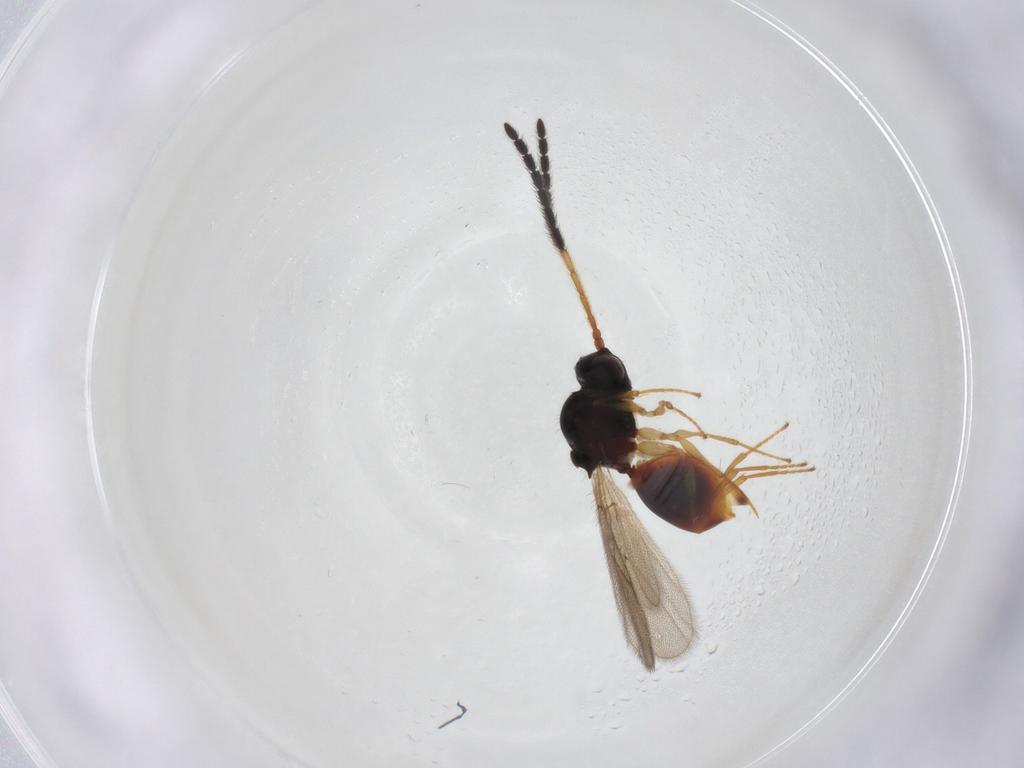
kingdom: Animalia
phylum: Arthropoda
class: Insecta
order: Hymenoptera
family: Figitidae
